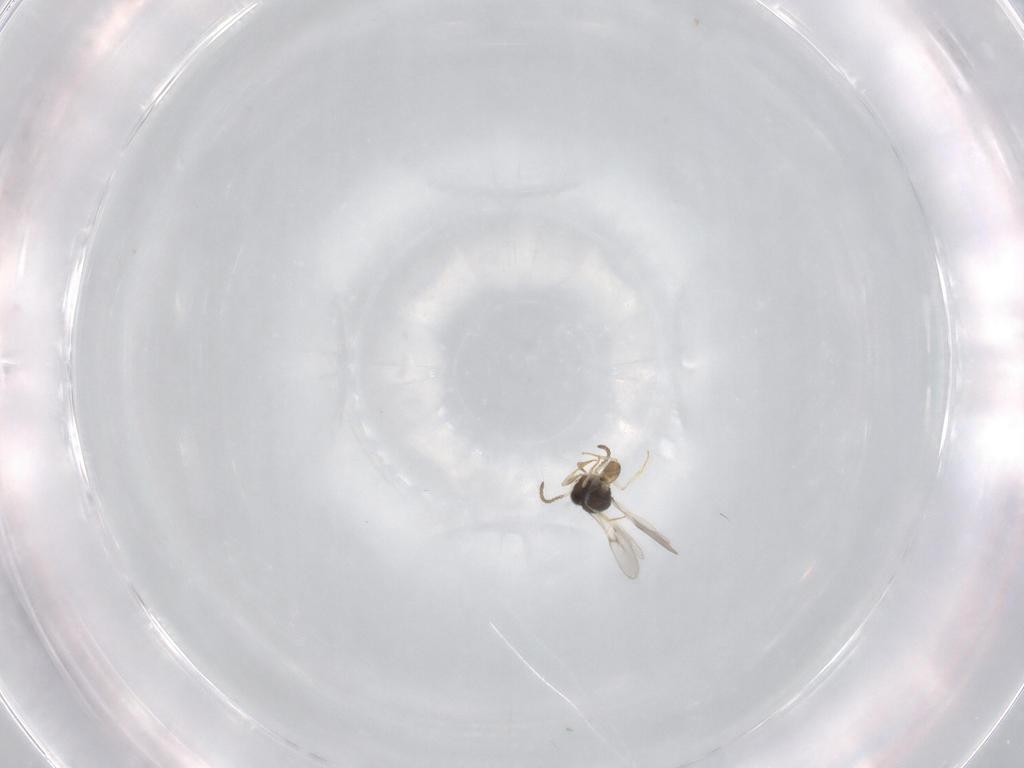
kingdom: Animalia
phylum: Arthropoda
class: Insecta
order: Hymenoptera
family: Scelionidae
